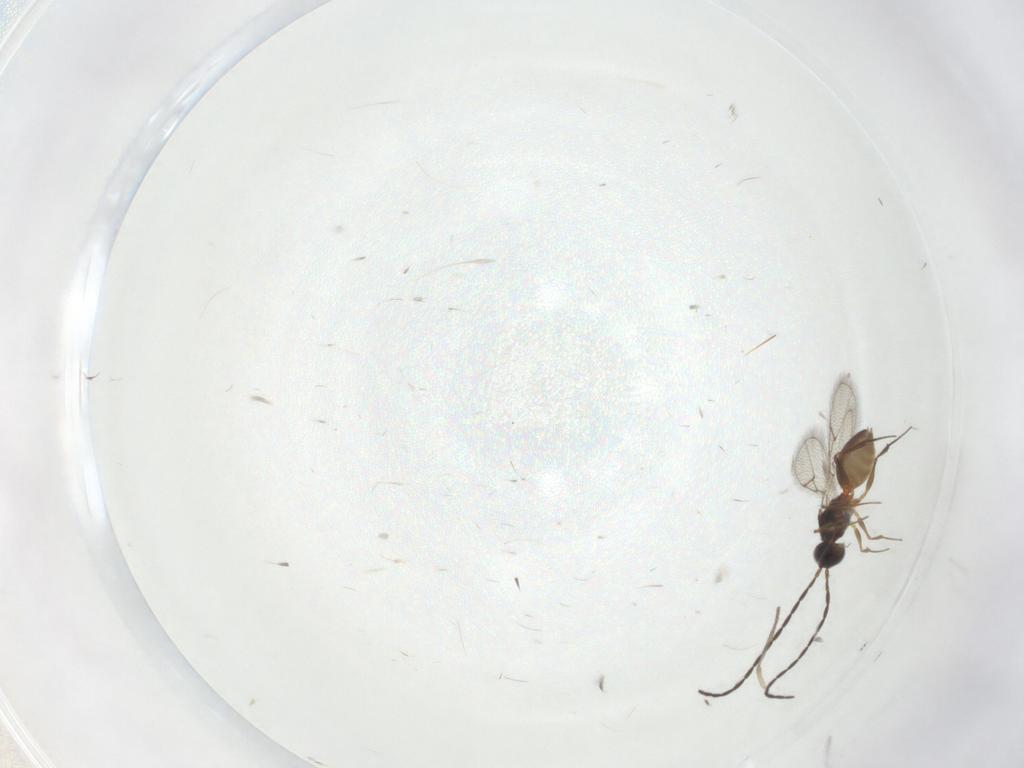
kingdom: Animalia
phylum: Arthropoda
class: Insecta
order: Hymenoptera
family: Figitidae
